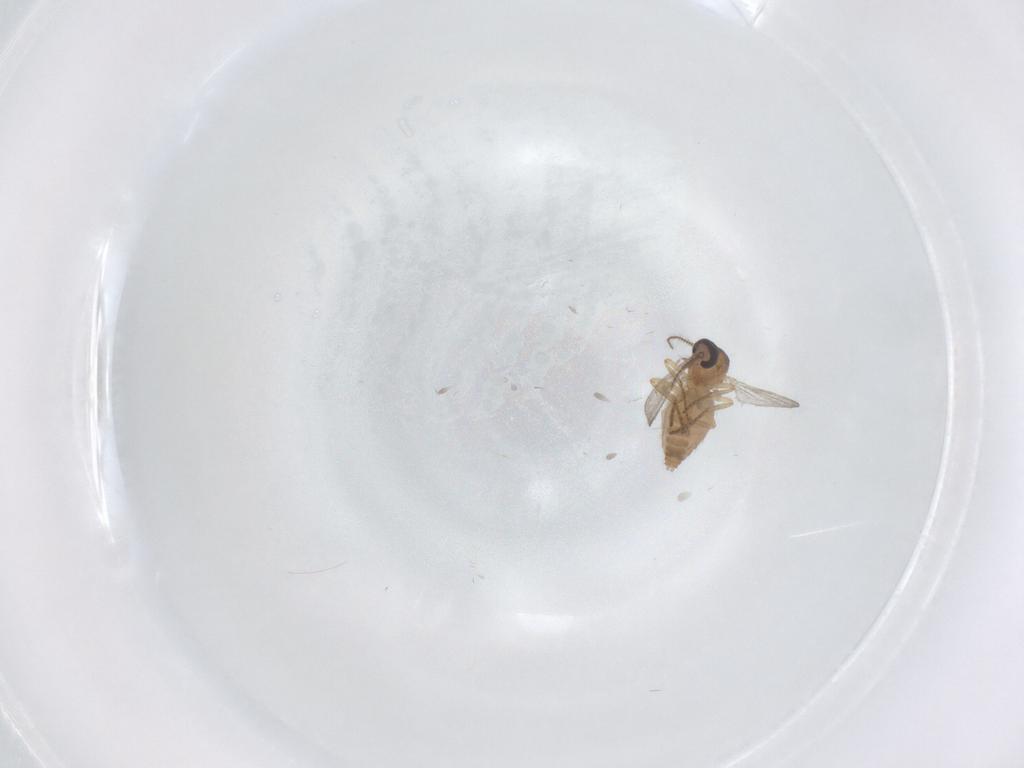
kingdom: Animalia
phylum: Arthropoda
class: Insecta
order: Diptera
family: Ceratopogonidae
